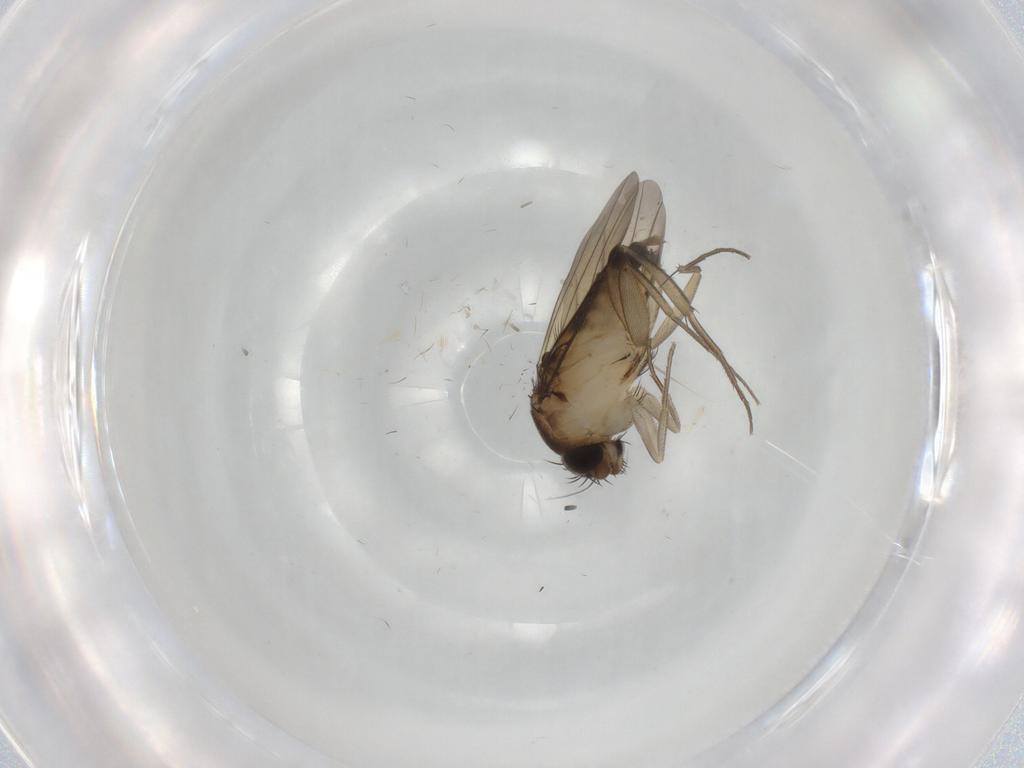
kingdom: Animalia
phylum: Arthropoda
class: Insecta
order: Diptera
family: Phoridae
